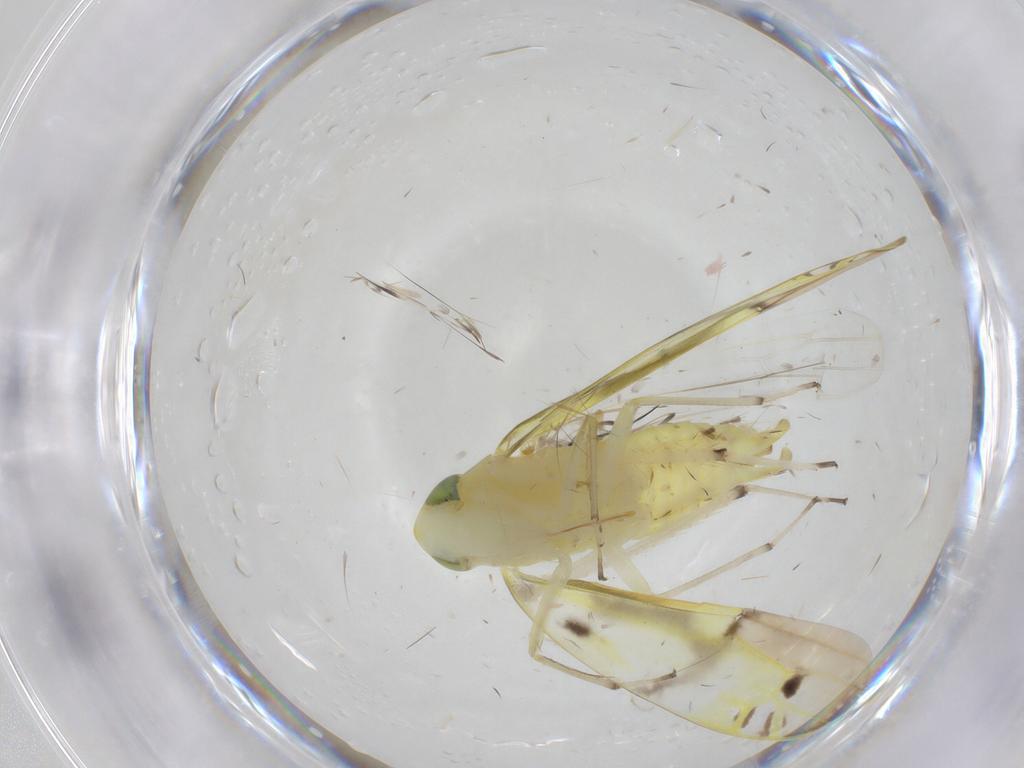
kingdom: Animalia
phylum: Arthropoda
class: Insecta
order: Hemiptera
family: Cicadellidae
